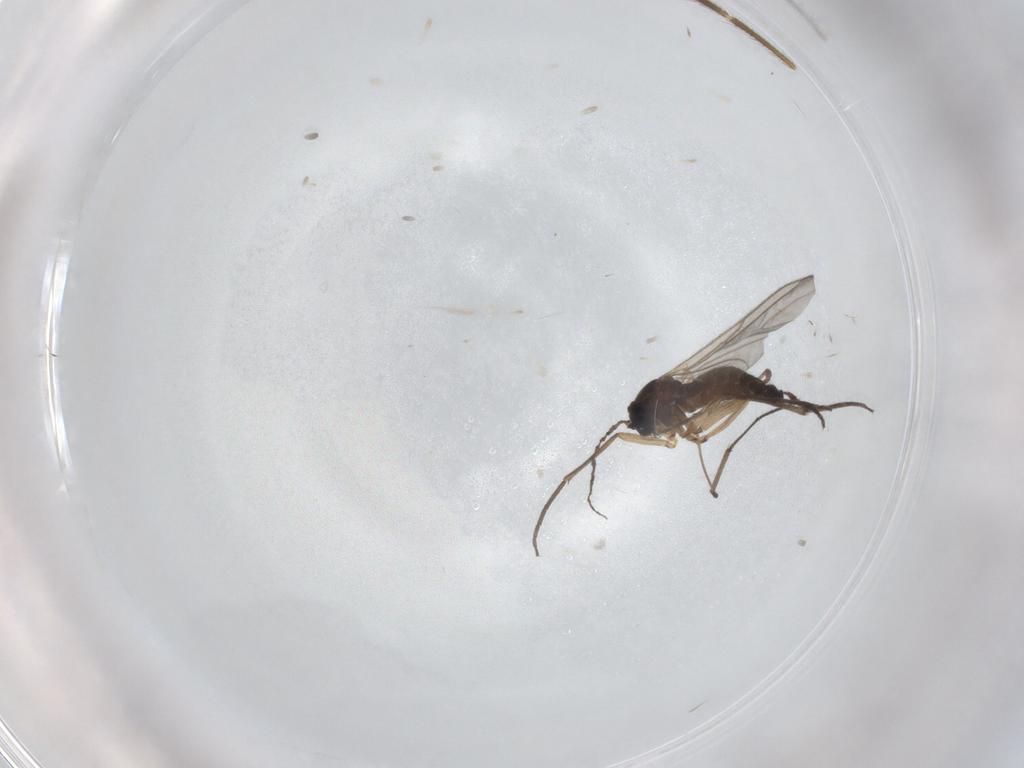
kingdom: Animalia
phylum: Arthropoda
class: Insecta
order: Diptera
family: Sciaridae
